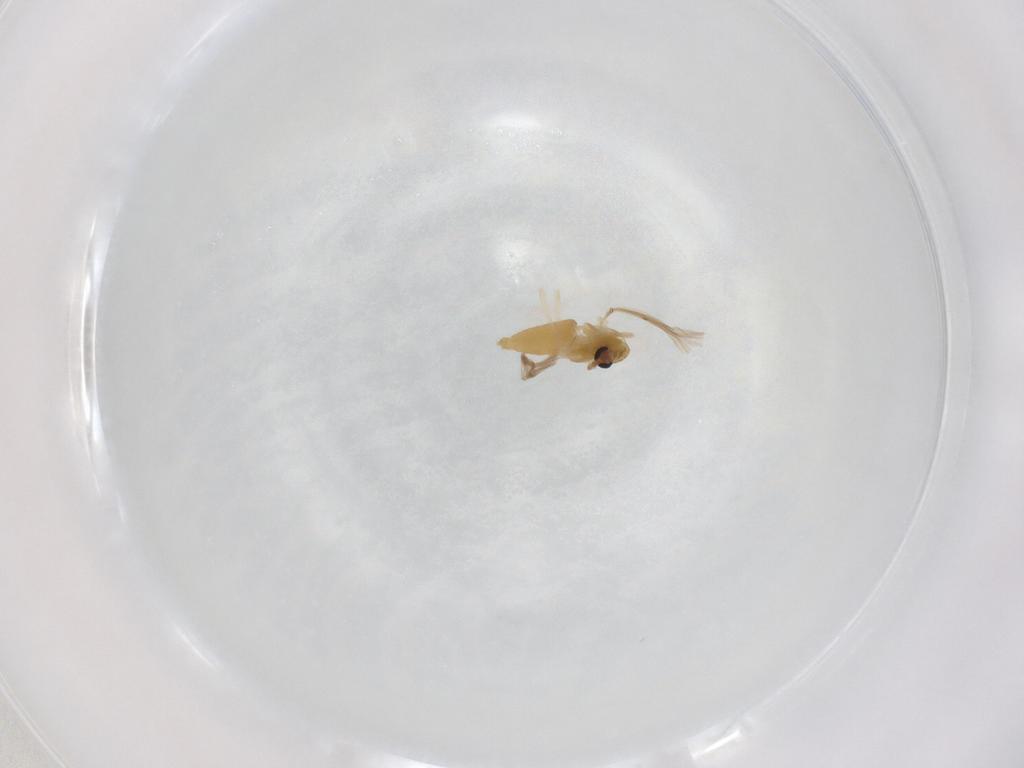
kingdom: Animalia
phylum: Arthropoda
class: Insecta
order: Diptera
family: Chironomidae
